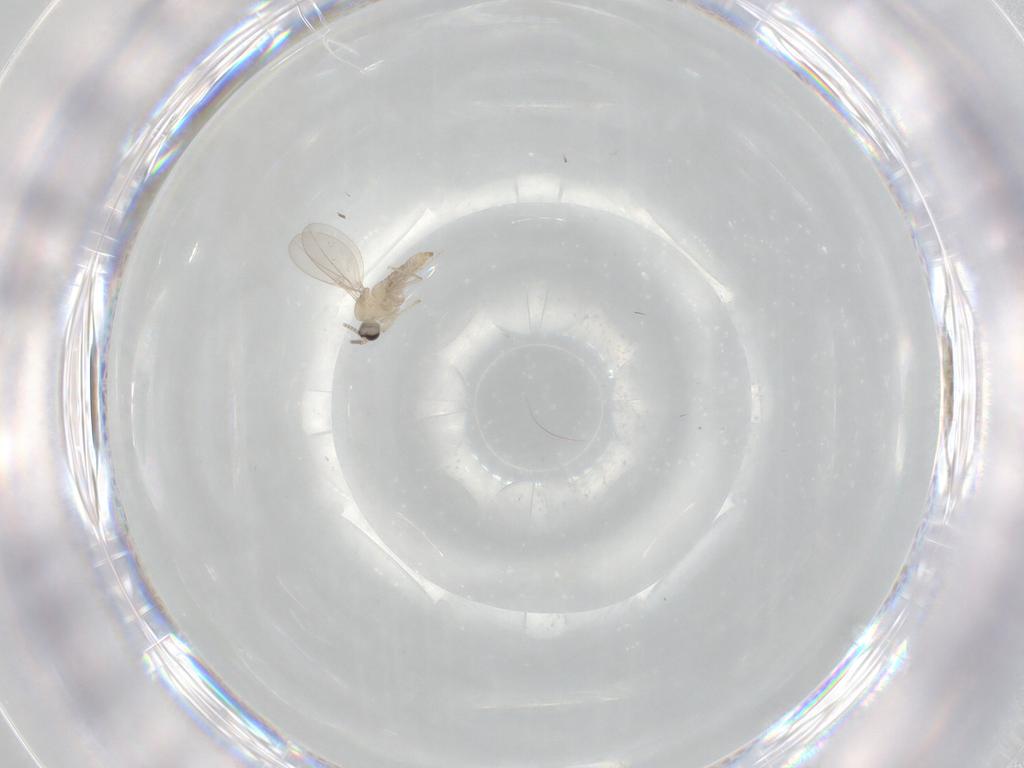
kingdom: Animalia
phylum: Arthropoda
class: Insecta
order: Diptera
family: Cecidomyiidae
